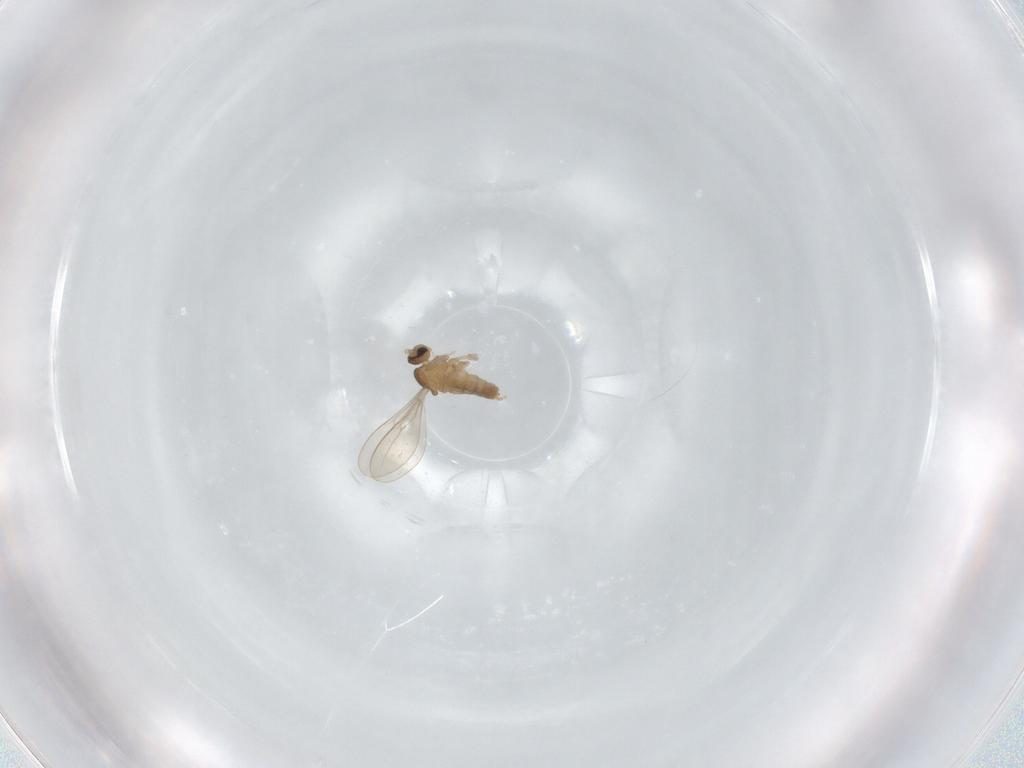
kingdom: Animalia
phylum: Arthropoda
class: Insecta
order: Diptera
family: Cecidomyiidae
